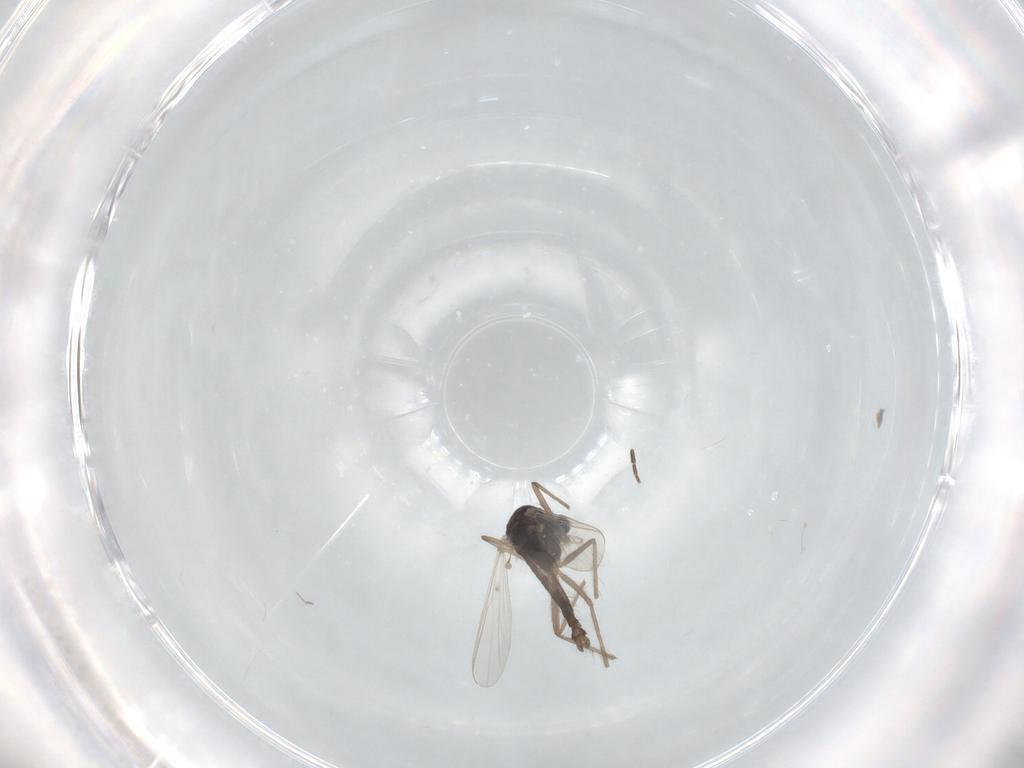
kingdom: Animalia
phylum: Arthropoda
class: Insecta
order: Diptera
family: Chironomidae
